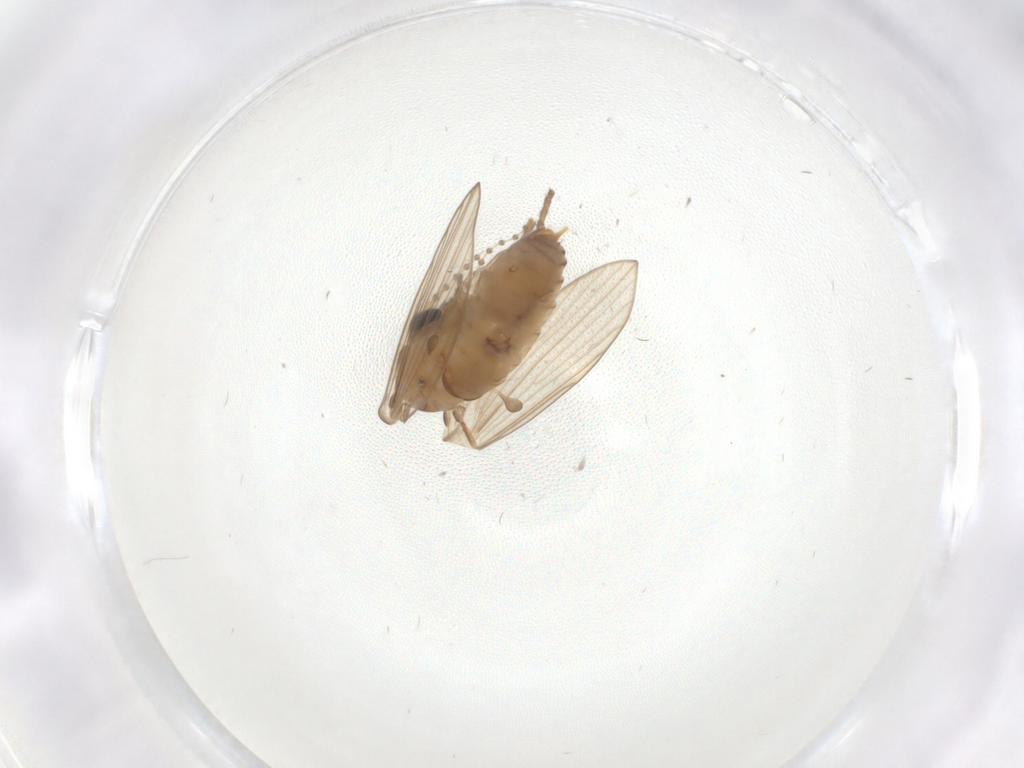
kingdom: Animalia
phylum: Arthropoda
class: Insecta
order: Diptera
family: Psychodidae
